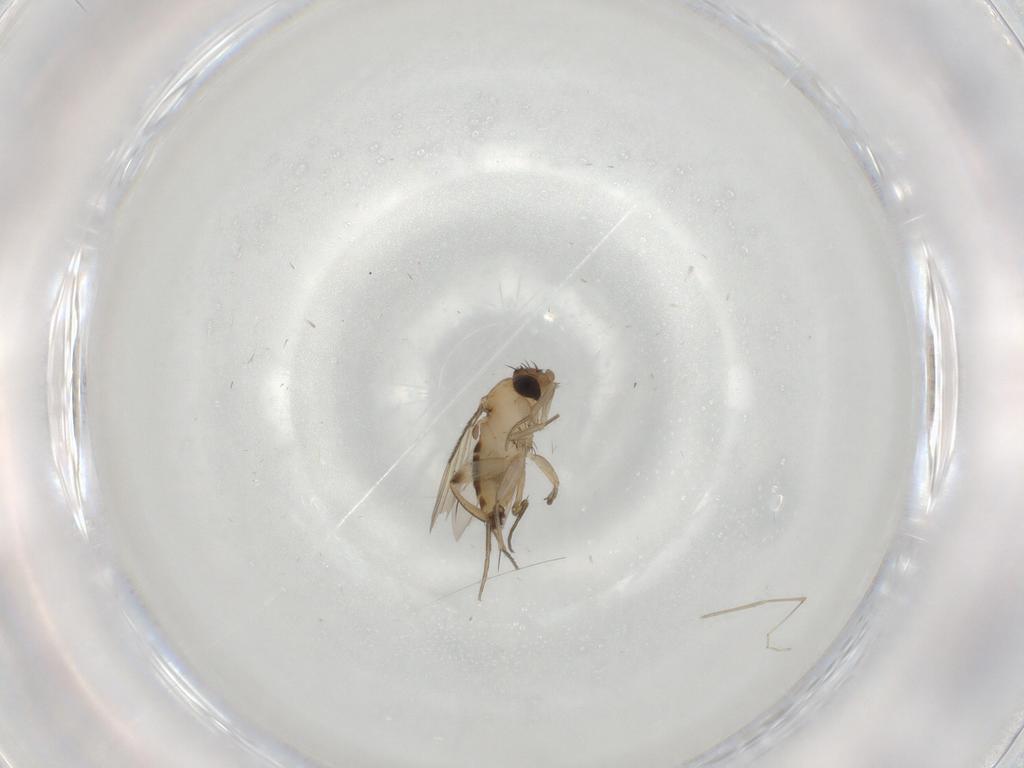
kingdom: Animalia
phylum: Arthropoda
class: Insecta
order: Diptera
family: Phoridae
